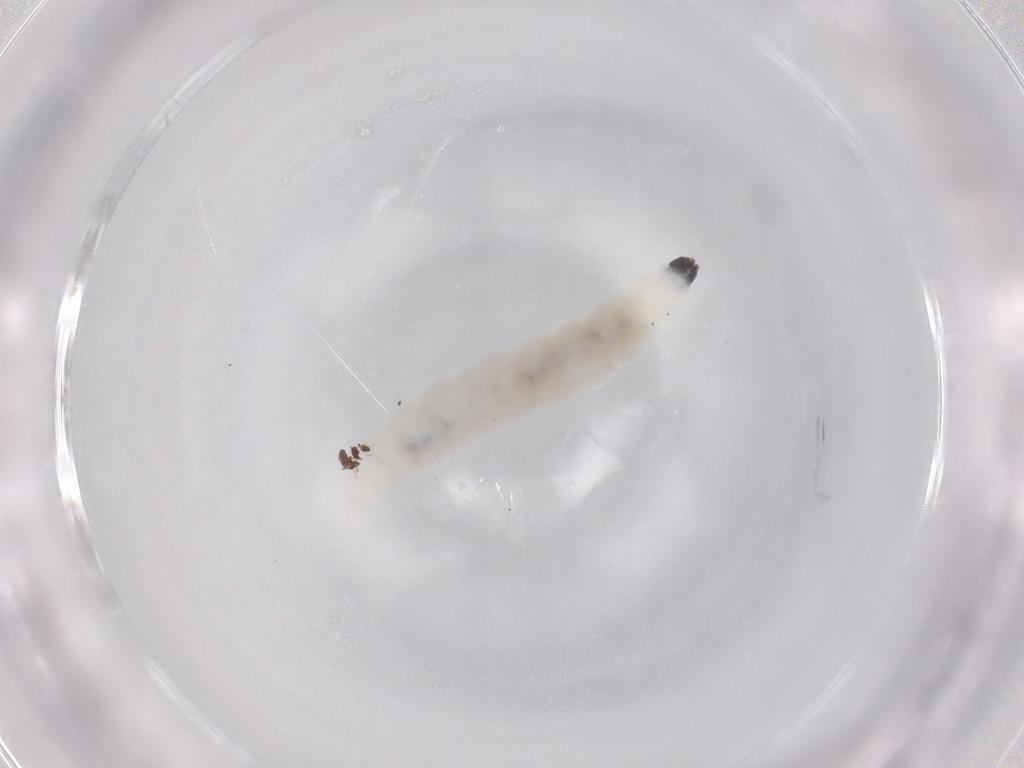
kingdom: Animalia
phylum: Arthropoda
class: Insecta
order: Diptera
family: Sciaridae
